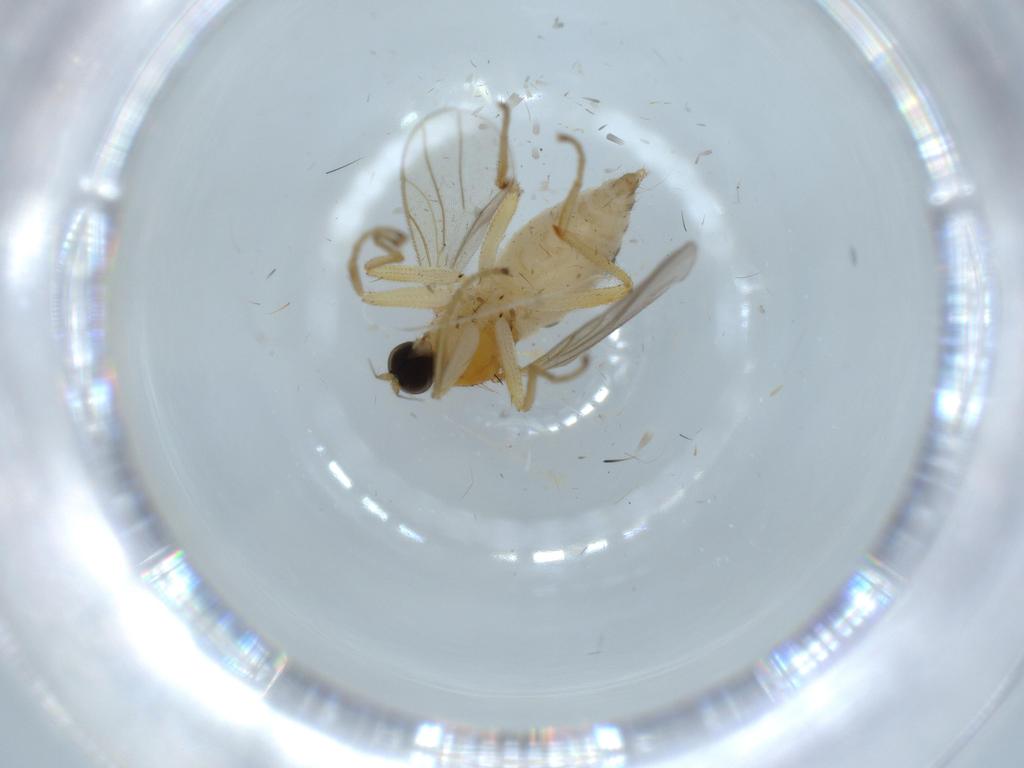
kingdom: Animalia
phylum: Arthropoda
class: Insecta
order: Diptera
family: Hybotidae
